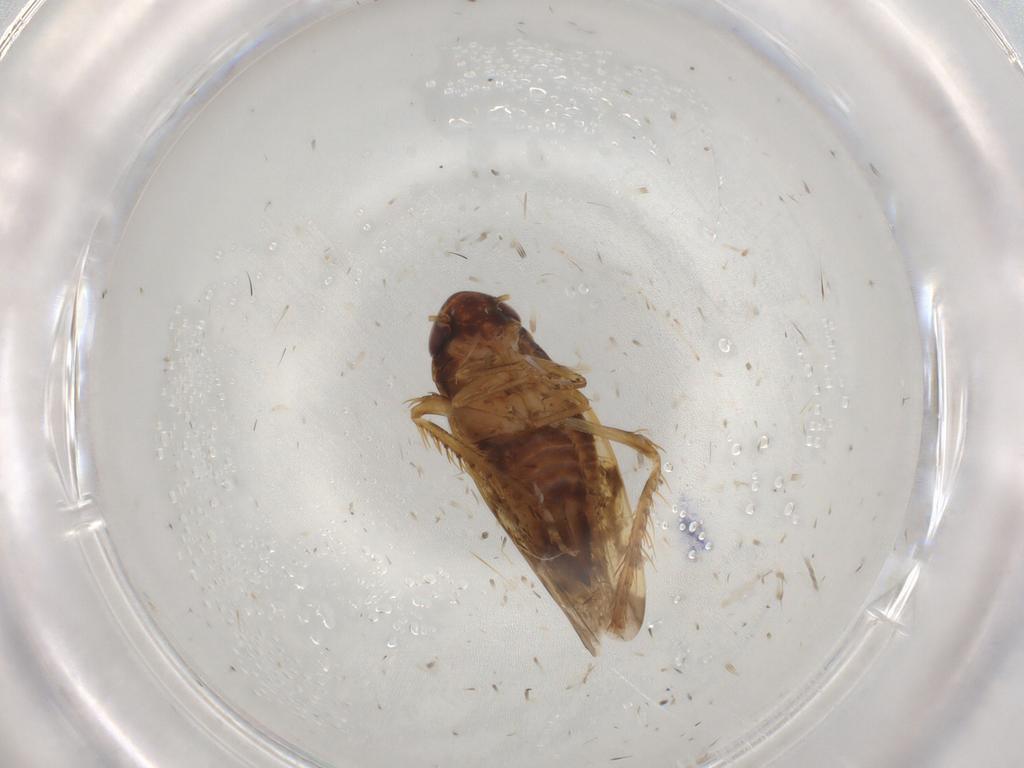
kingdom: Animalia
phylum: Arthropoda
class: Insecta
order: Hemiptera
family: Cicadellidae
